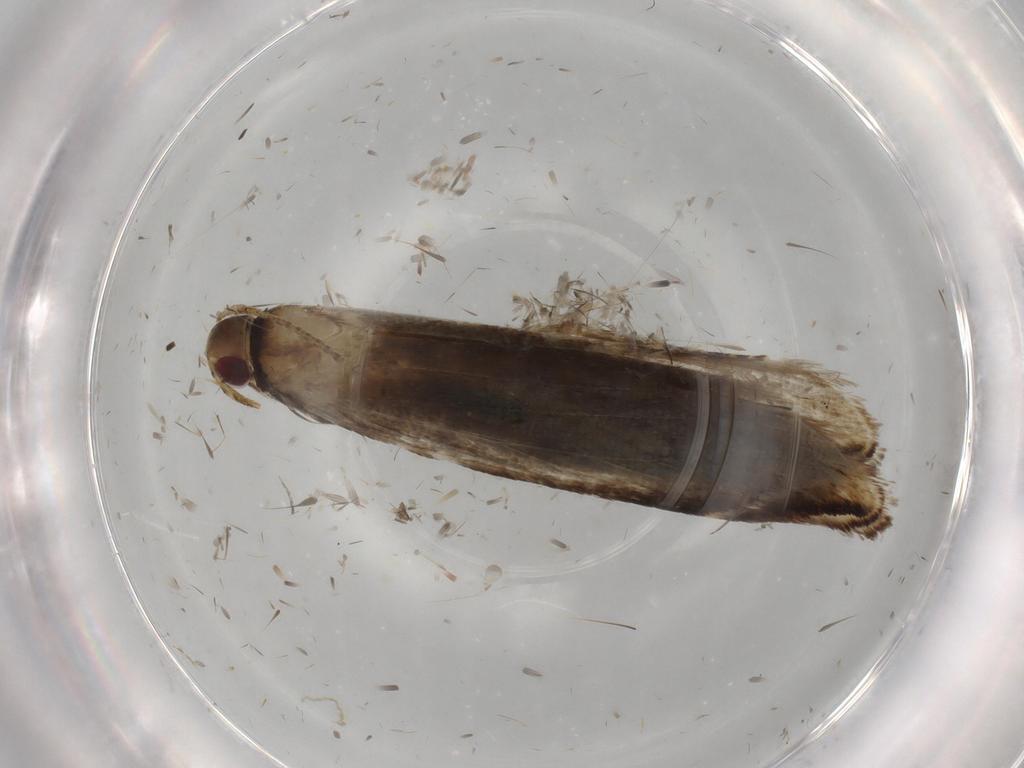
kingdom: Animalia
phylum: Arthropoda
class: Insecta
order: Lepidoptera
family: Gelechiidae
